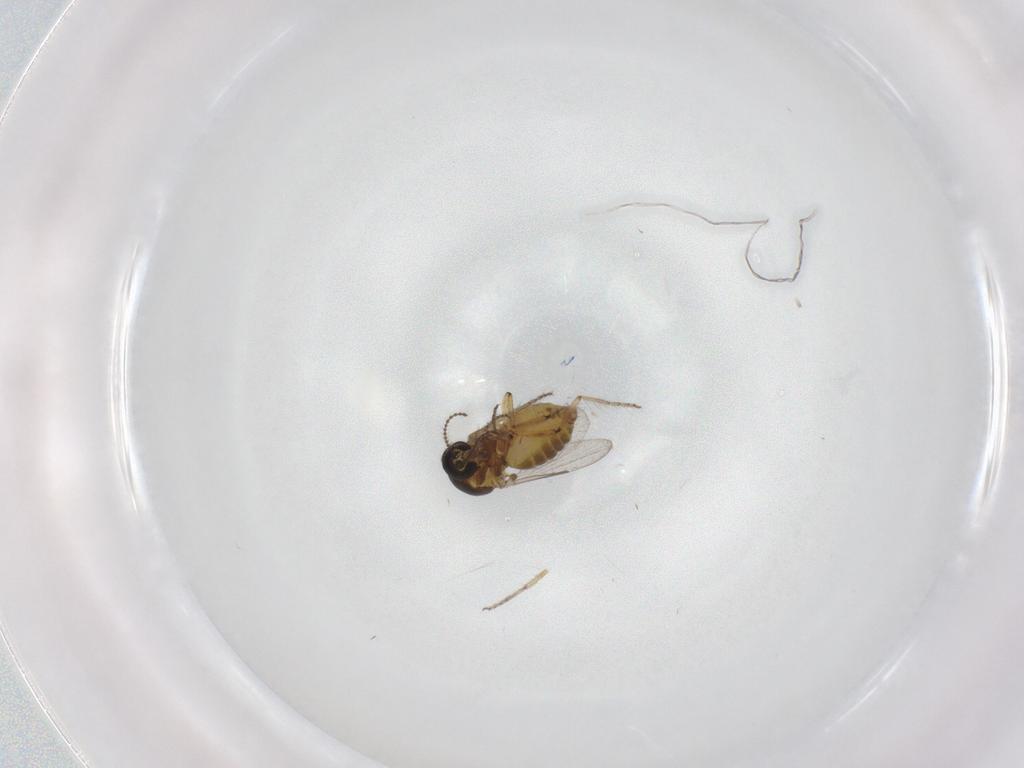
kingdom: Animalia
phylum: Arthropoda
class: Insecta
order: Diptera
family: Ceratopogonidae
